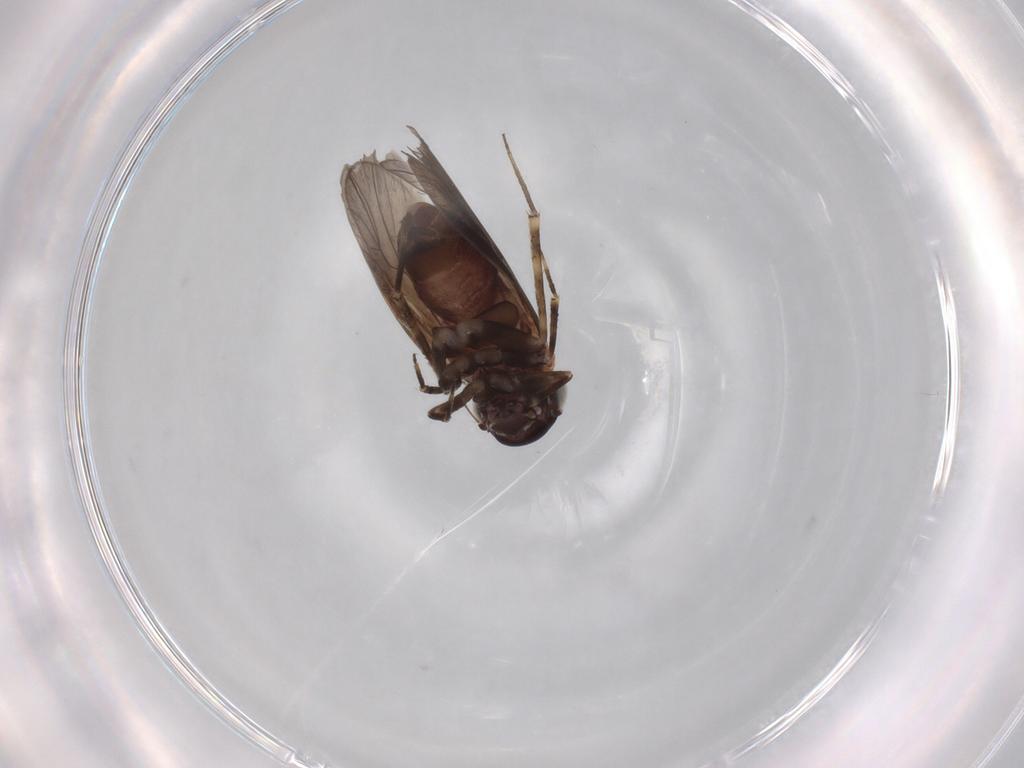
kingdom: Animalia
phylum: Arthropoda
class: Insecta
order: Psocodea
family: Amphientomidae
